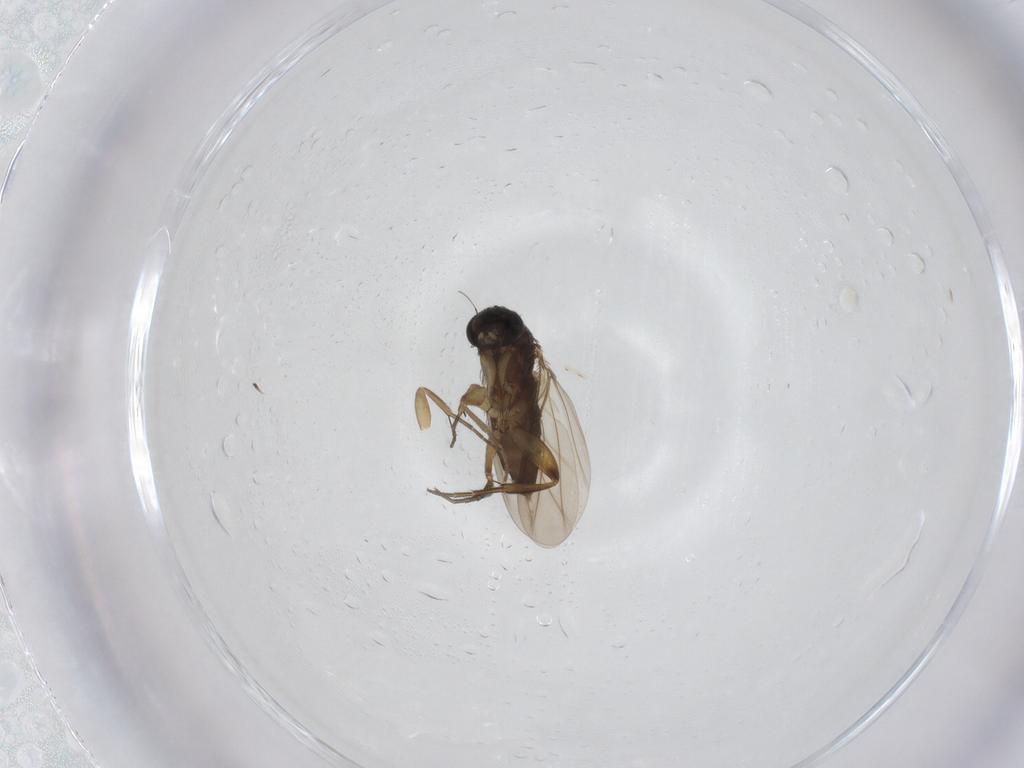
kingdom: Animalia
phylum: Arthropoda
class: Insecta
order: Diptera
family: Phoridae
